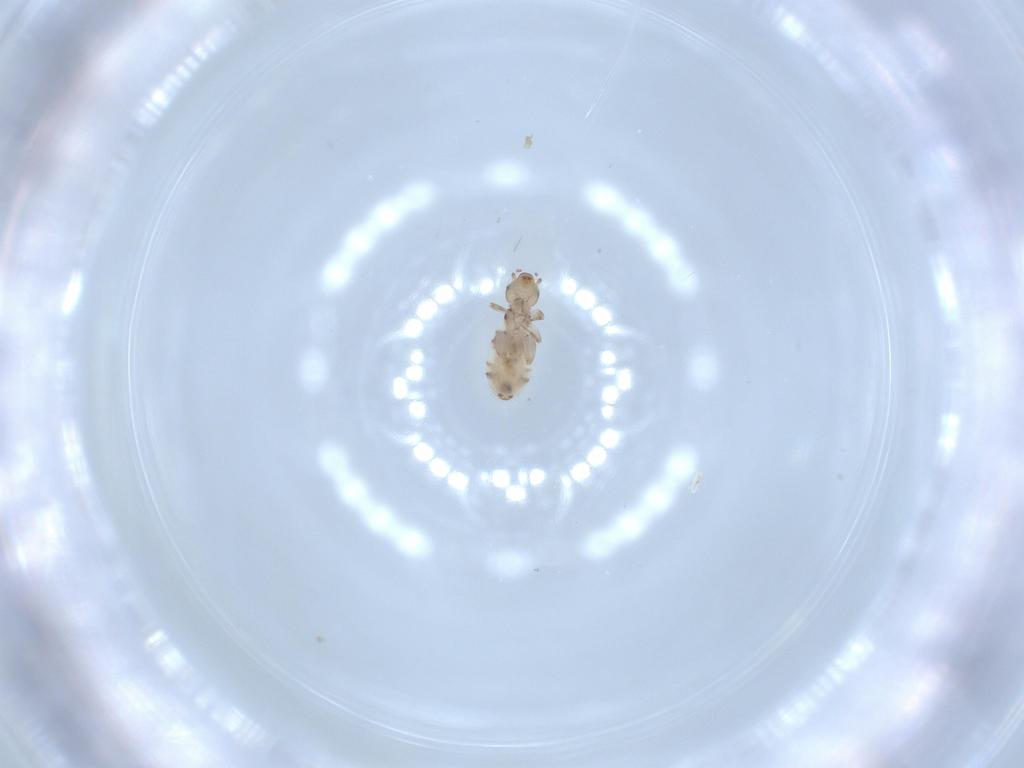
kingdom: Animalia
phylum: Arthropoda
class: Insecta
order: Psocodea
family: Liposcelididae
